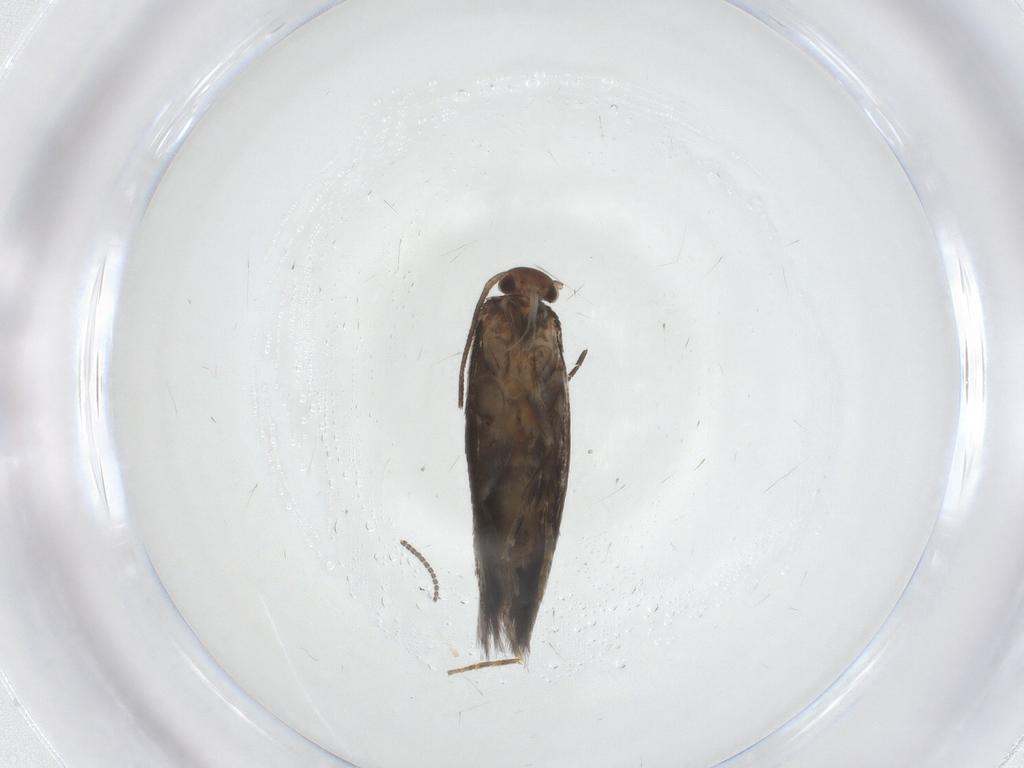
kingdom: Animalia
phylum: Arthropoda
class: Insecta
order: Lepidoptera
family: Elachistidae
